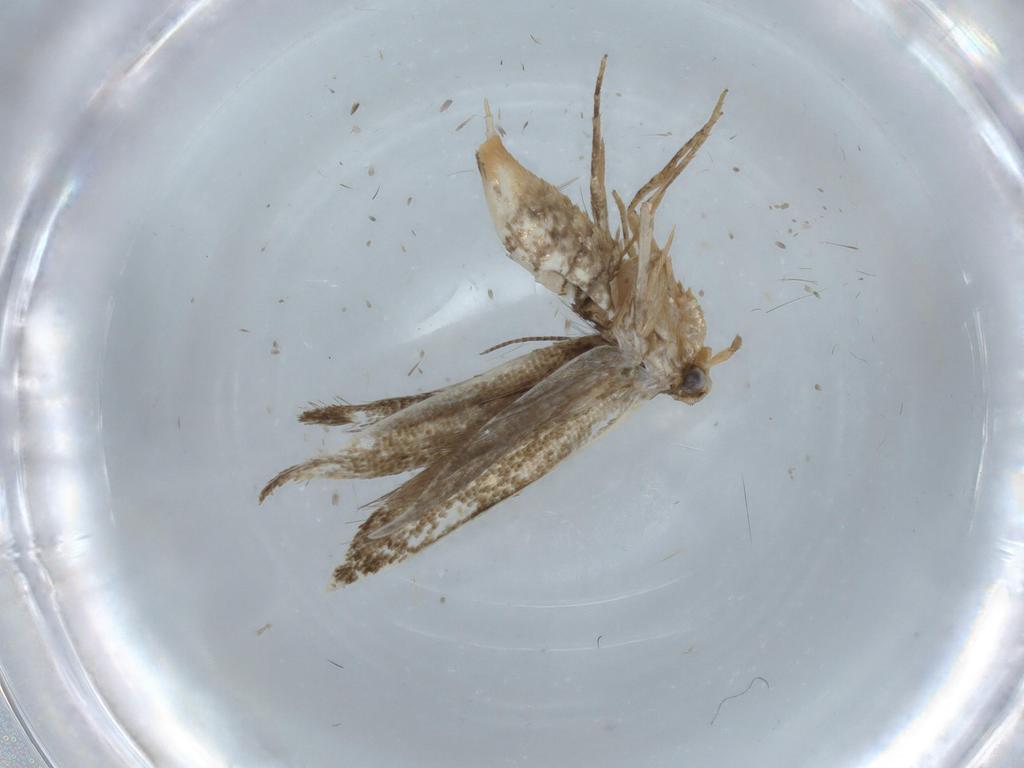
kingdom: Animalia
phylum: Arthropoda
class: Insecta
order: Lepidoptera
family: Tineidae
